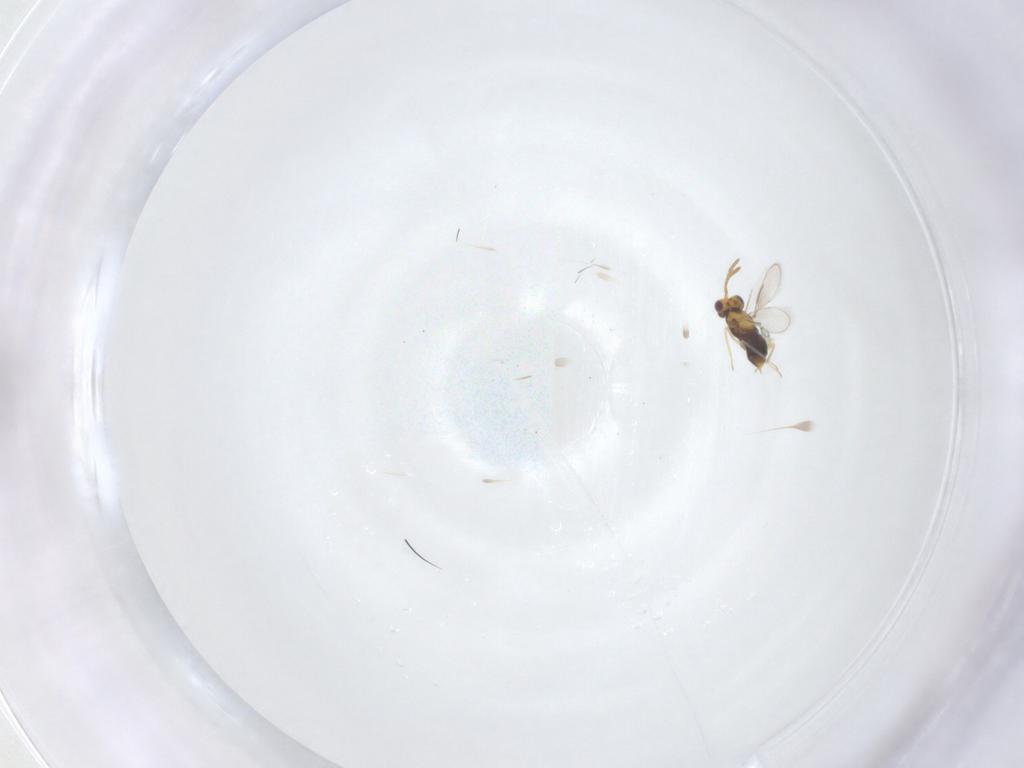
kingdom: Animalia
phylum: Arthropoda
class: Insecta
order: Hymenoptera
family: Aphelinidae
